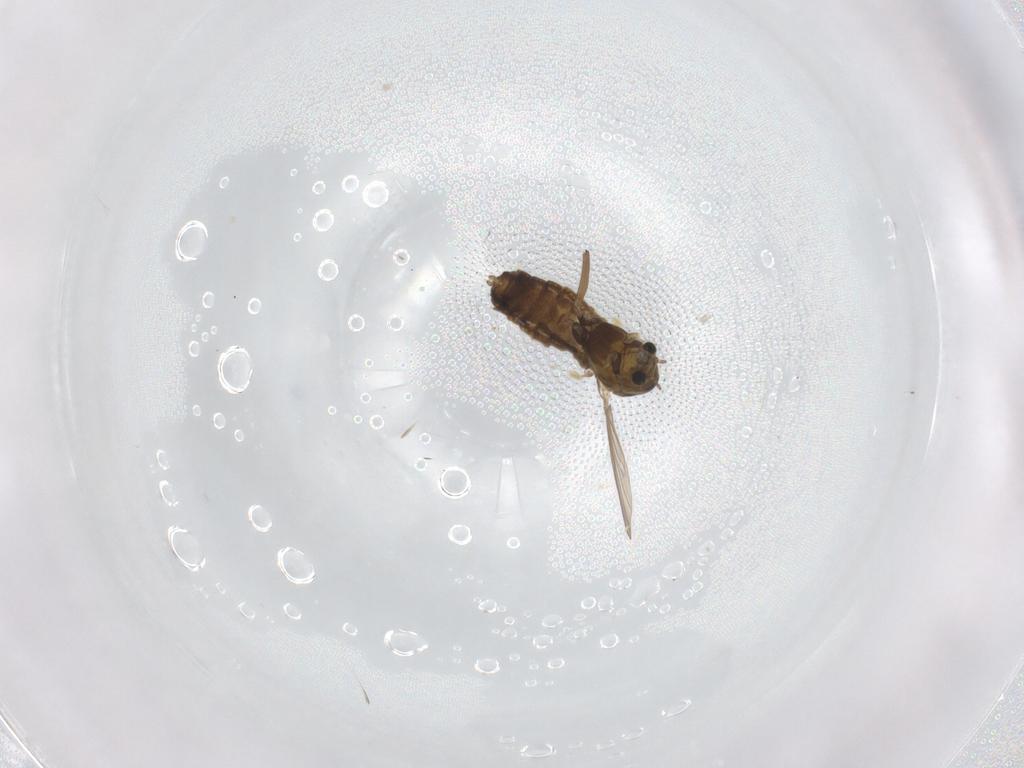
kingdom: Animalia
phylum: Arthropoda
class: Insecta
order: Diptera
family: Chironomidae
